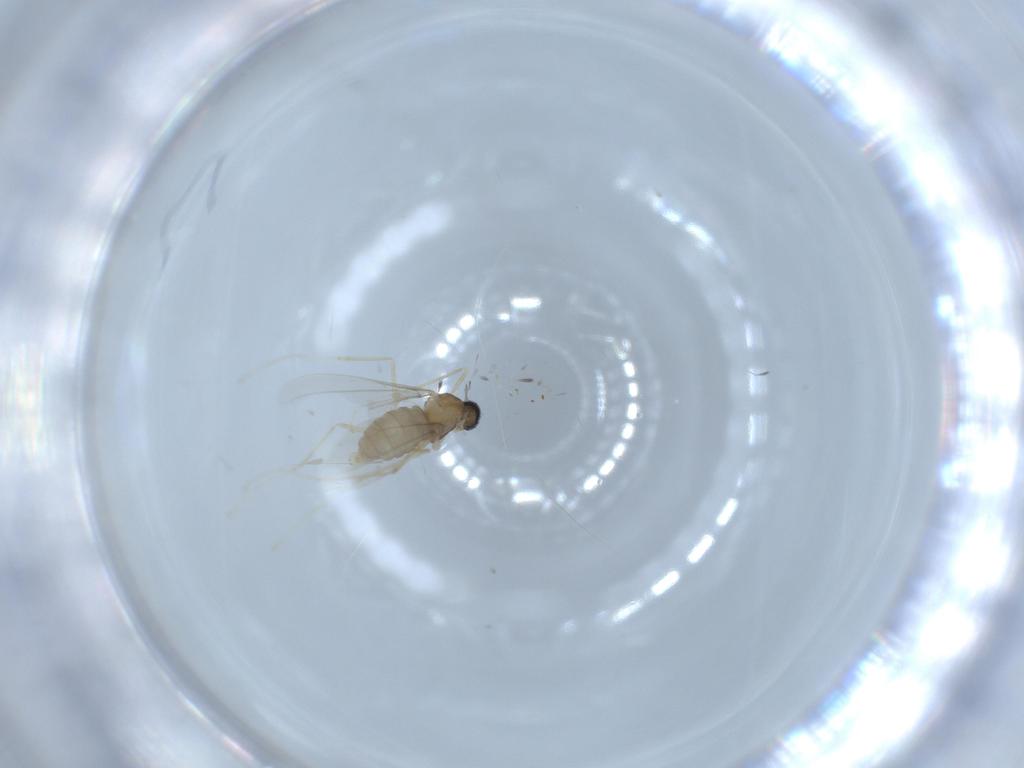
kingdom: Animalia
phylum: Arthropoda
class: Insecta
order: Diptera
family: Cecidomyiidae
